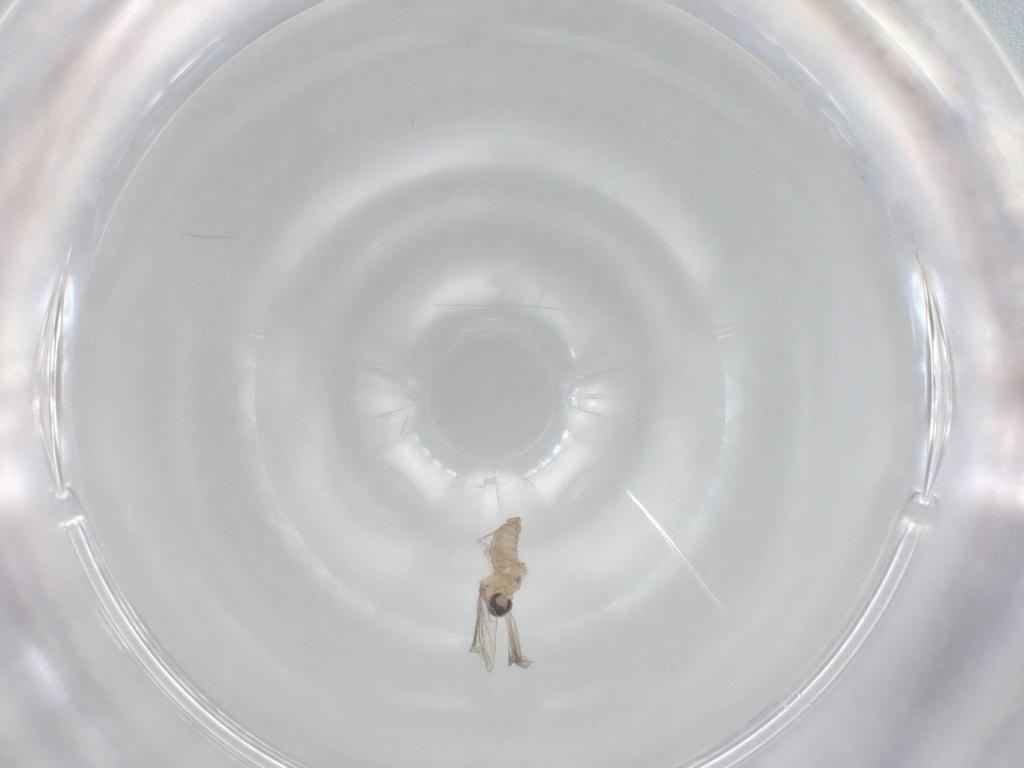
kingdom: Animalia
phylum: Arthropoda
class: Insecta
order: Diptera
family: Cecidomyiidae
